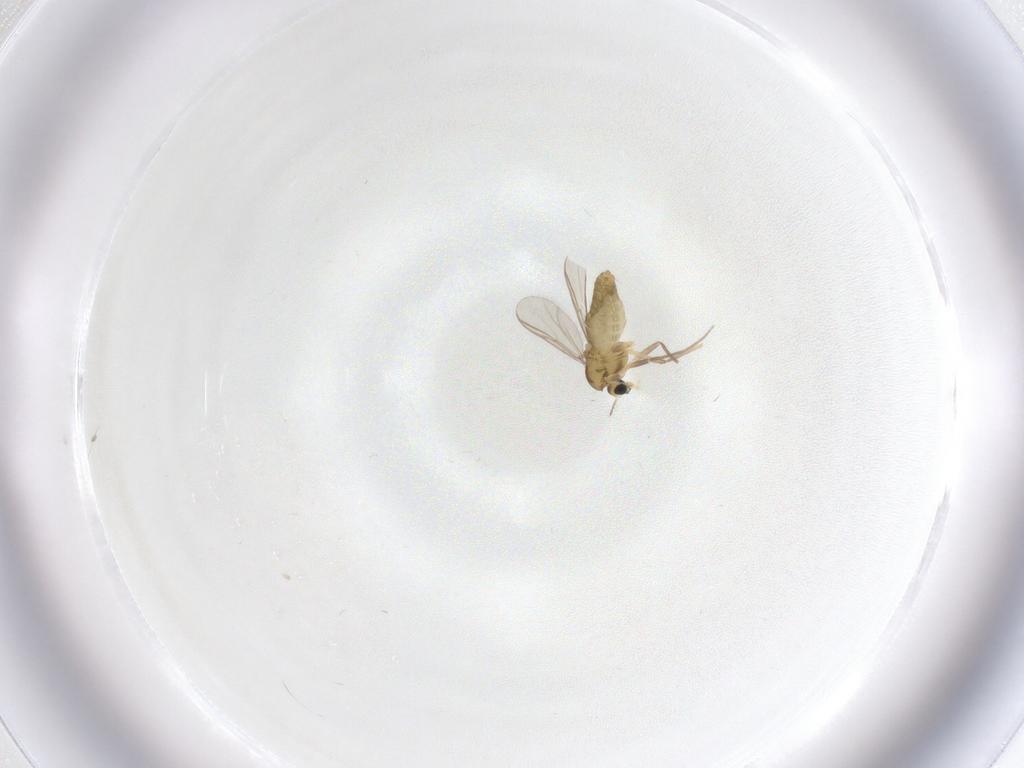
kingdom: Animalia
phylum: Arthropoda
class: Insecta
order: Diptera
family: Chironomidae
